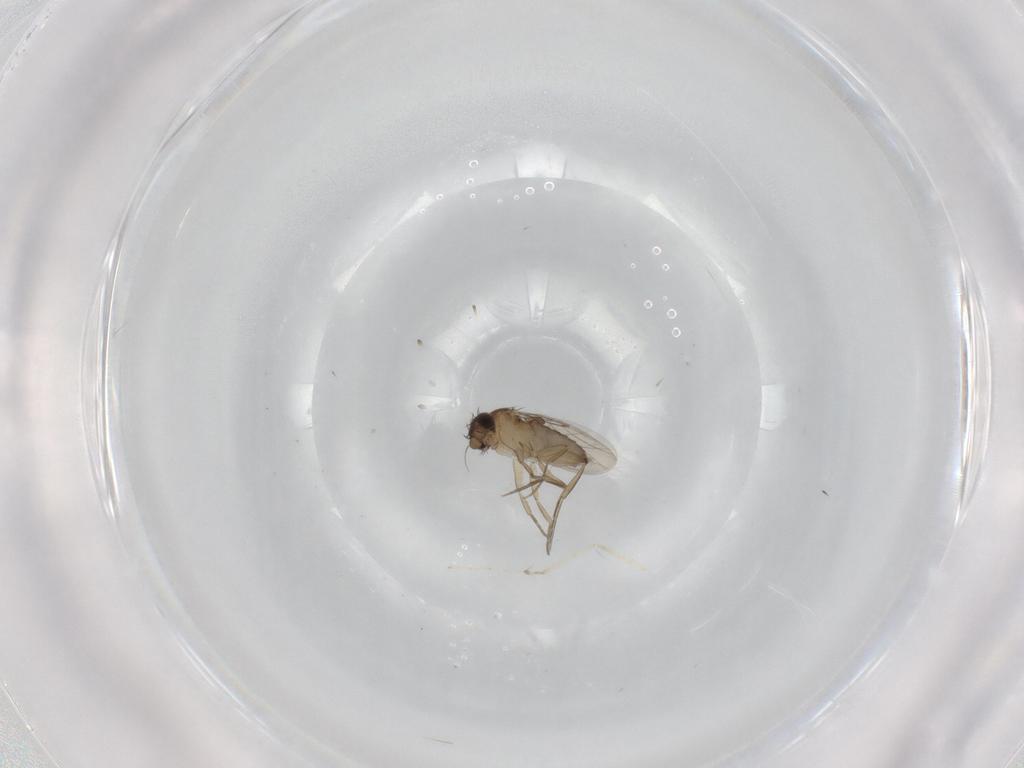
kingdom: Animalia
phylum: Arthropoda
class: Insecta
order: Diptera
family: Phoridae
